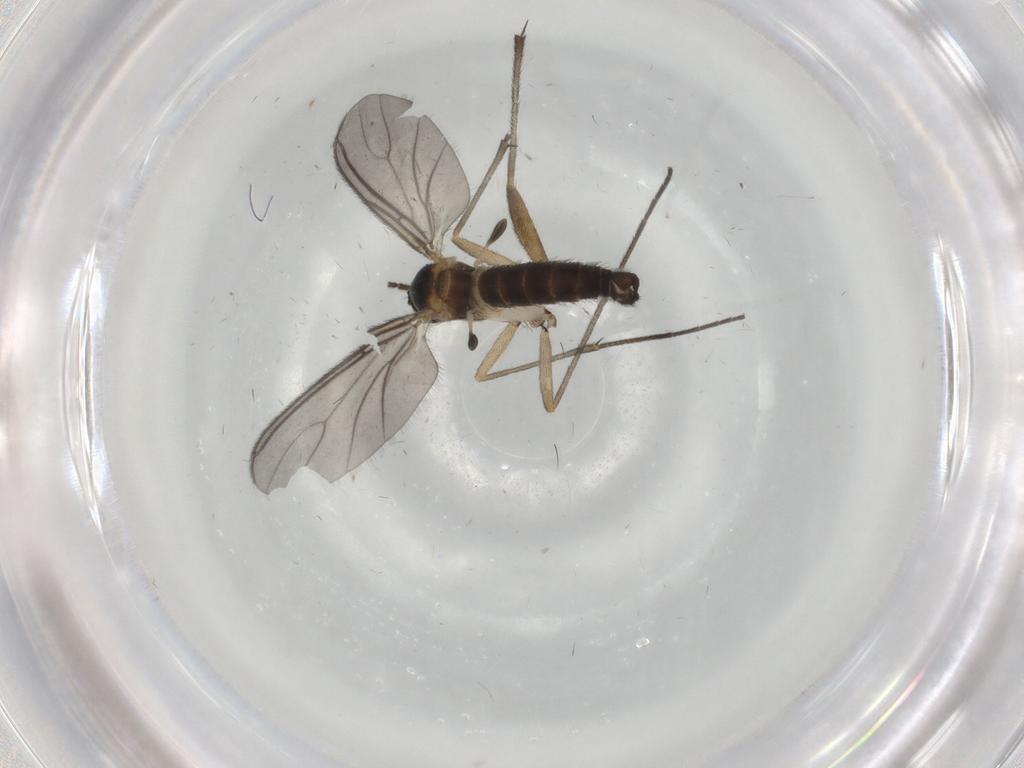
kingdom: Animalia
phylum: Arthropoda
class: Insecta
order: Diptera
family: Sciaridae
